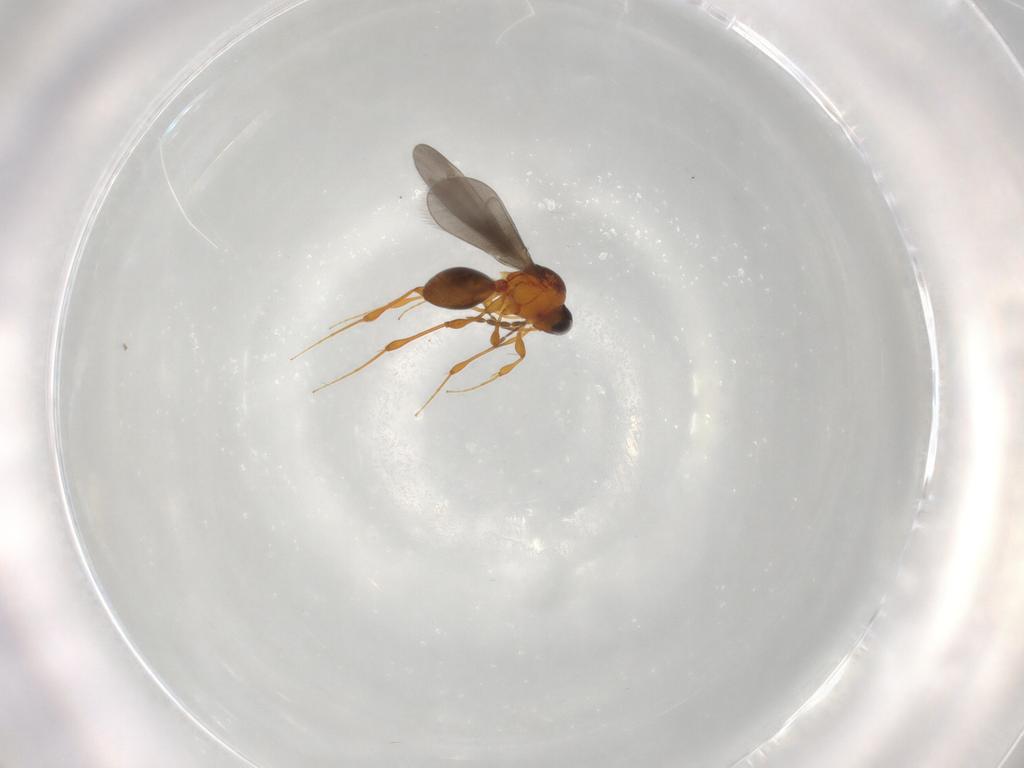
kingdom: Animalia
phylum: Arthropoda
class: Insecta
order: Hymenoptera
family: Platygastridae
